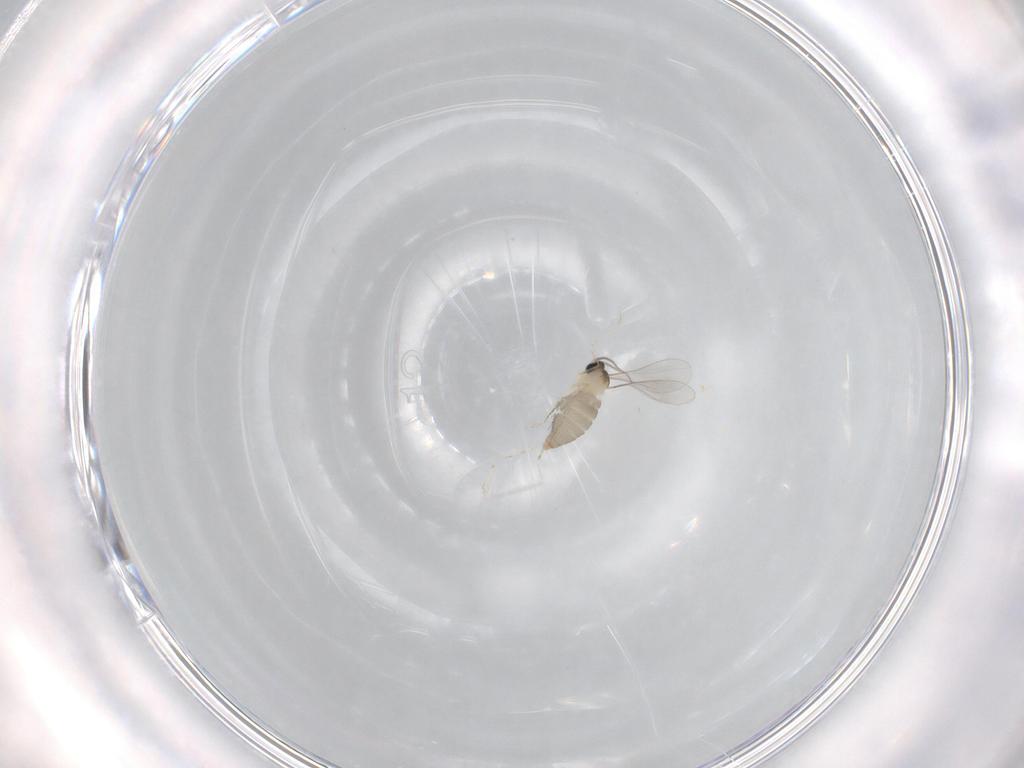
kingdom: Animalia
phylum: Arthropoda
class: Insecta
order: Diptera
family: Cecidomyiidae
